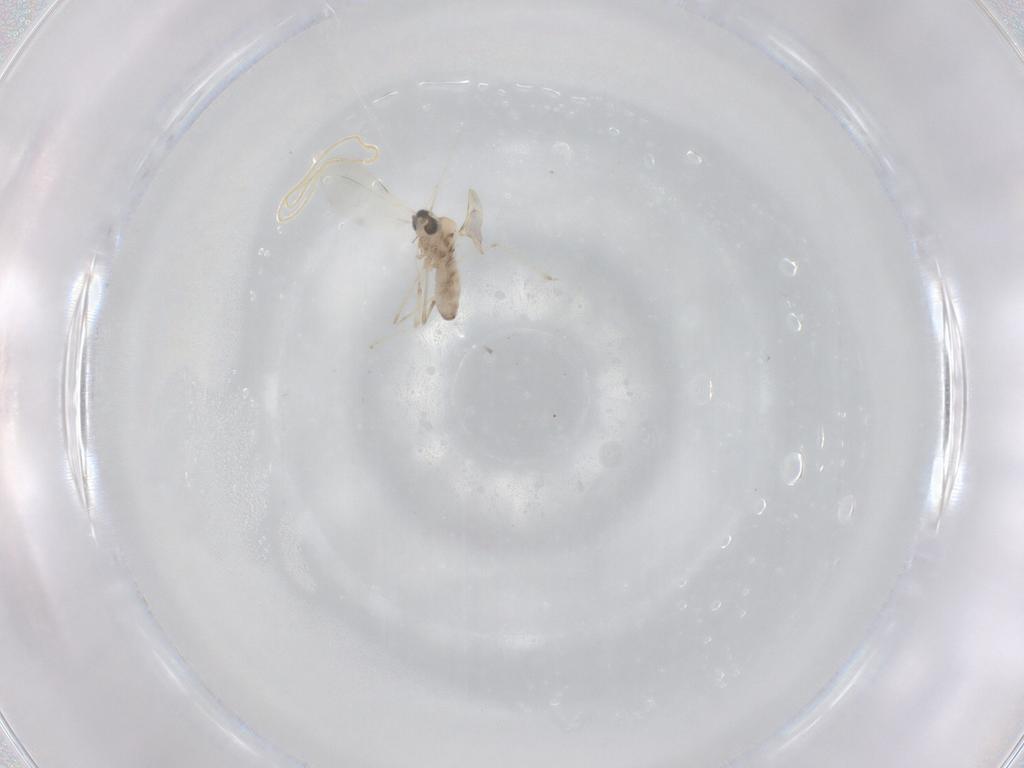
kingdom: Animalia
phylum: Arthropoda
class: Insecta
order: Diptera
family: Cecidomyiidae
